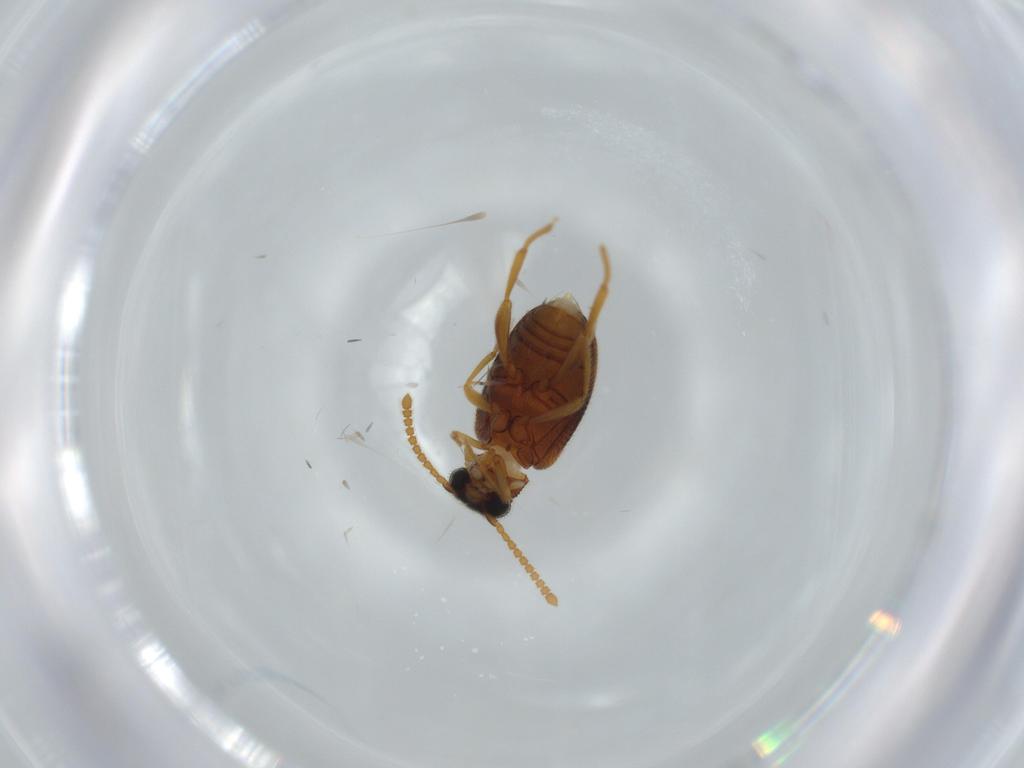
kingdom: Animalia
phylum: Arthropoda
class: Insecta
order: Coleoptera
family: Aderidae
